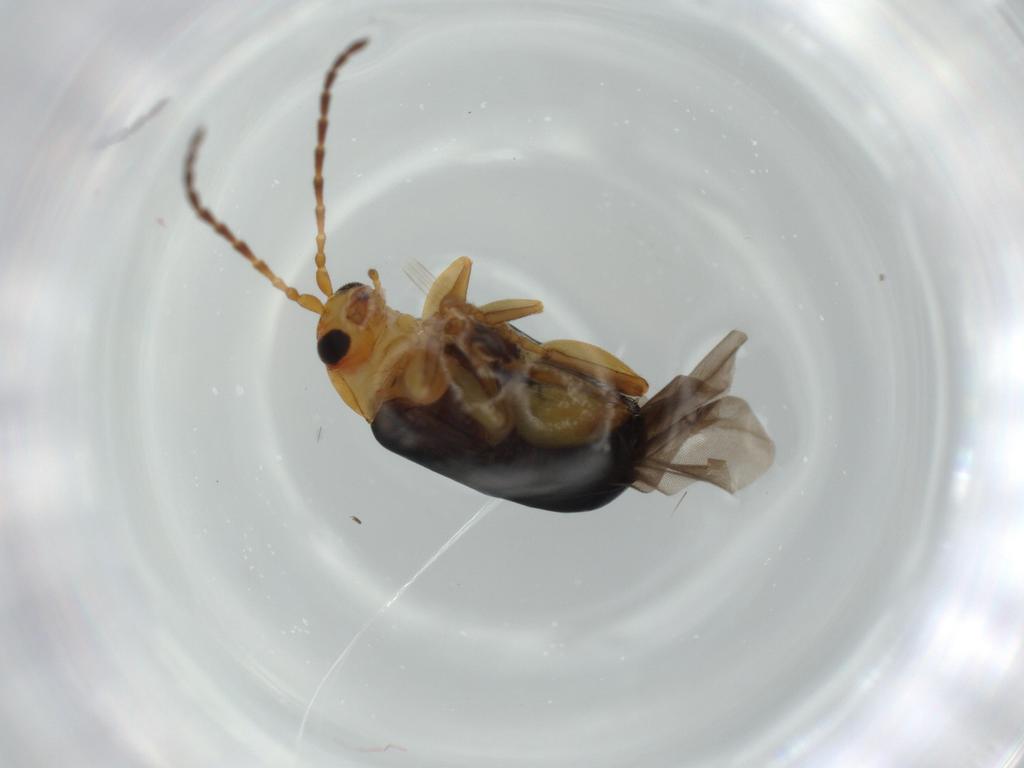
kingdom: Animalia
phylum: Arthropoda
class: Insecta
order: Coleoptera
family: Chrysomelidae
